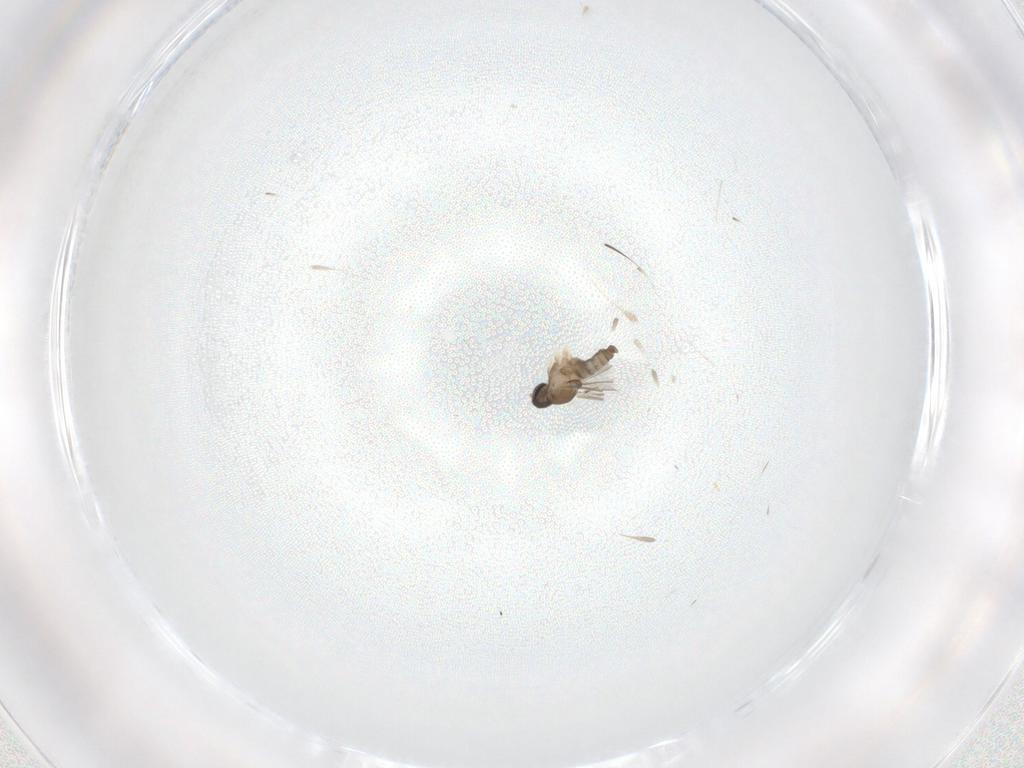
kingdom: Animalia
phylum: Arthropoda
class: Insecta
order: Diptera
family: Cecidomyiidae
